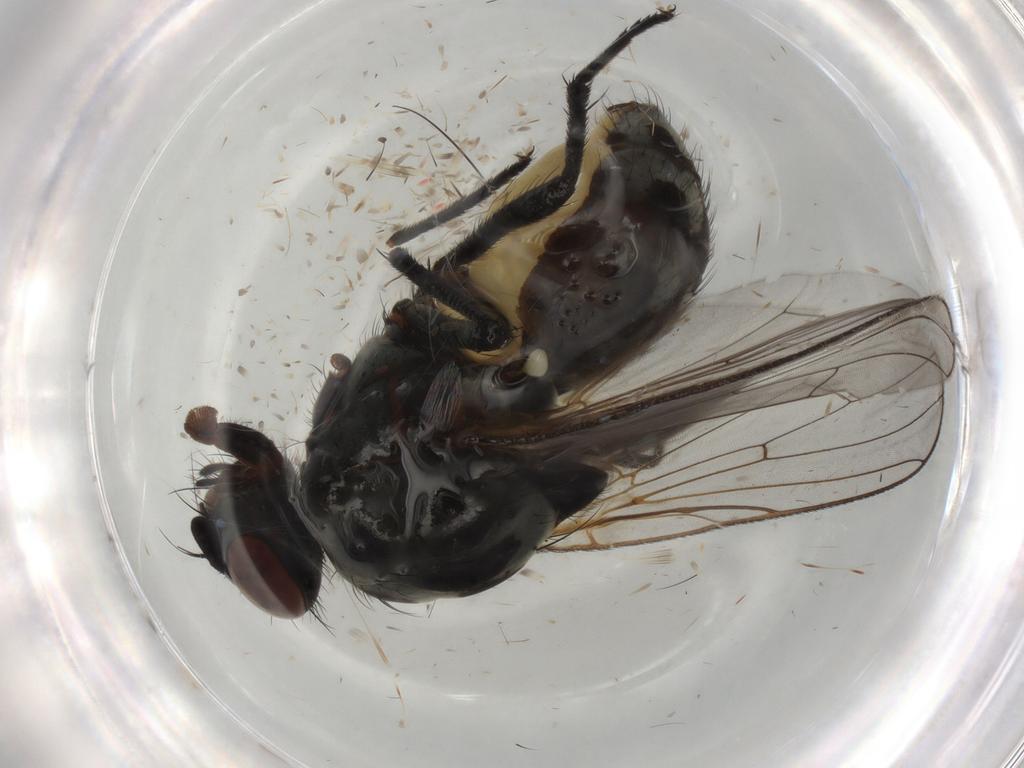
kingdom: Animalia
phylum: Arthropoda
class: Insecta
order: Diptera
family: Anthomyiidae
